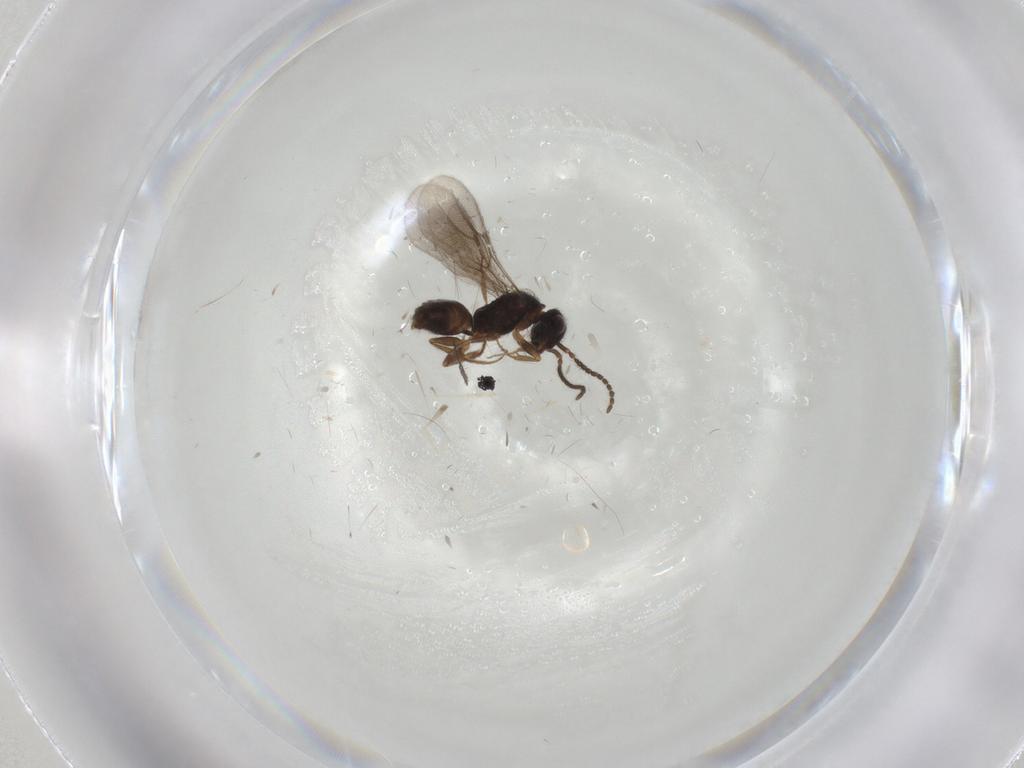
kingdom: Animalia
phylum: Arthropoda
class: Insecta
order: Hymenoptera
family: Bethylidae
